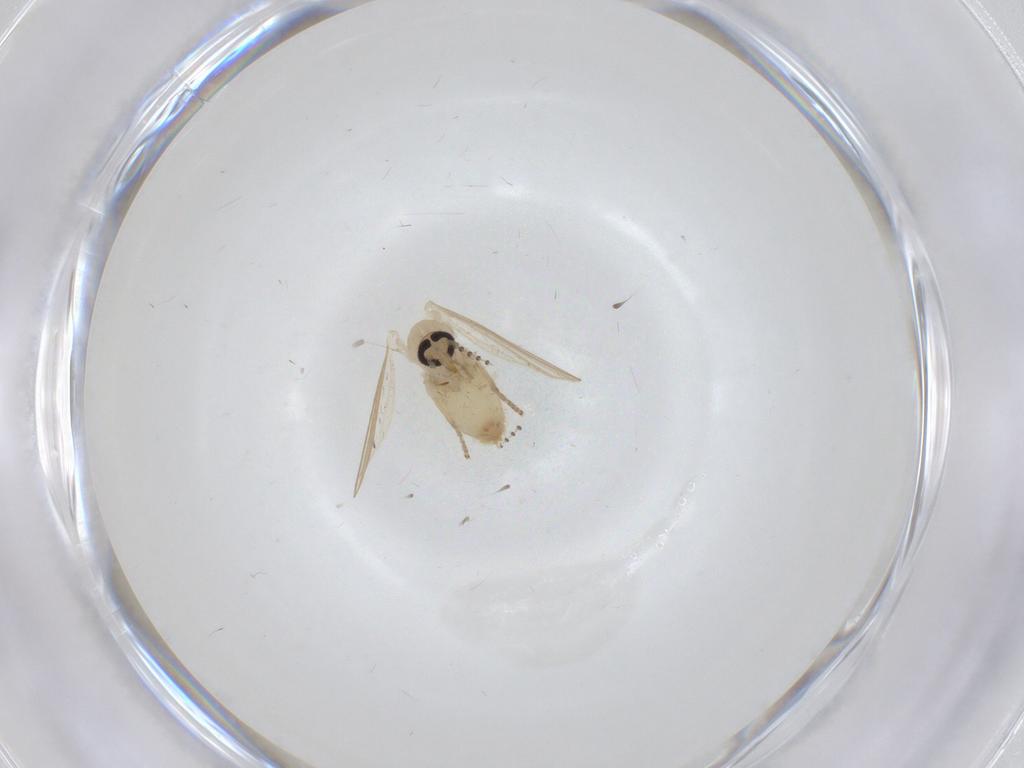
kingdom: Animalia
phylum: Arthropoda
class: Insecta
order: Diptera
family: Psychodidae
